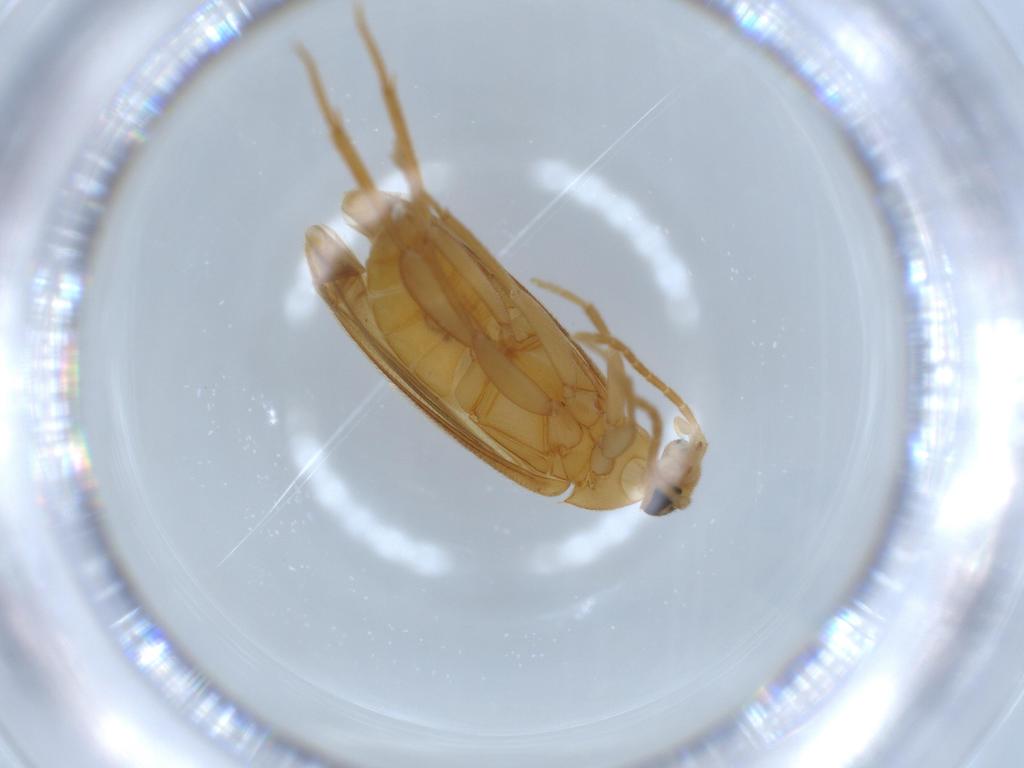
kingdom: Animalia
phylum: Arthropoda
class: Insecta
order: Coleoptera
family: Scraptiidae
